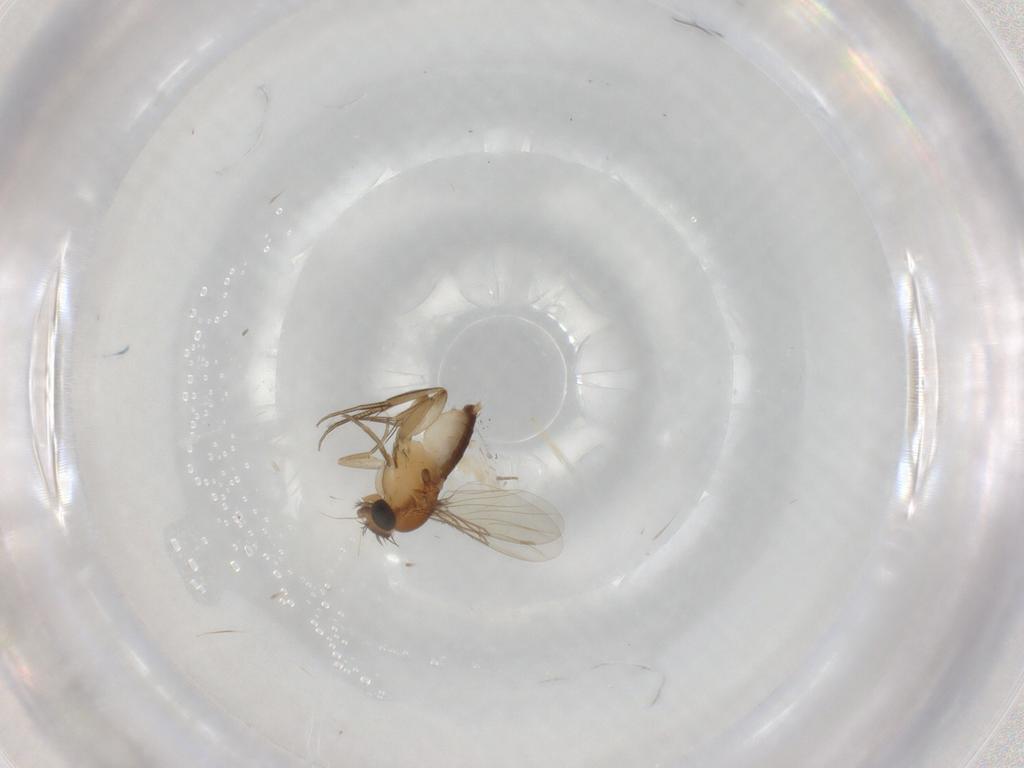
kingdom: Animalia
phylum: Arthropoda
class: Insecta
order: Diptera
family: Phoridae
